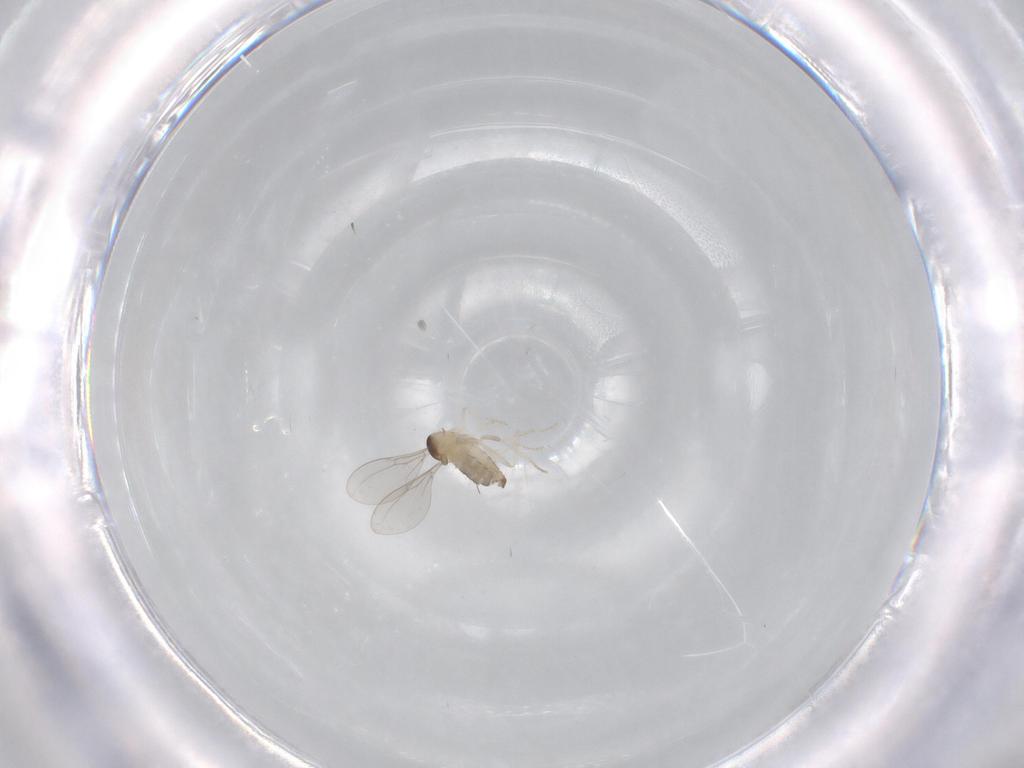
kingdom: Animalia
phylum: Arthropoda
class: Insecta
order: Diptera
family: Cecidomyiidae
